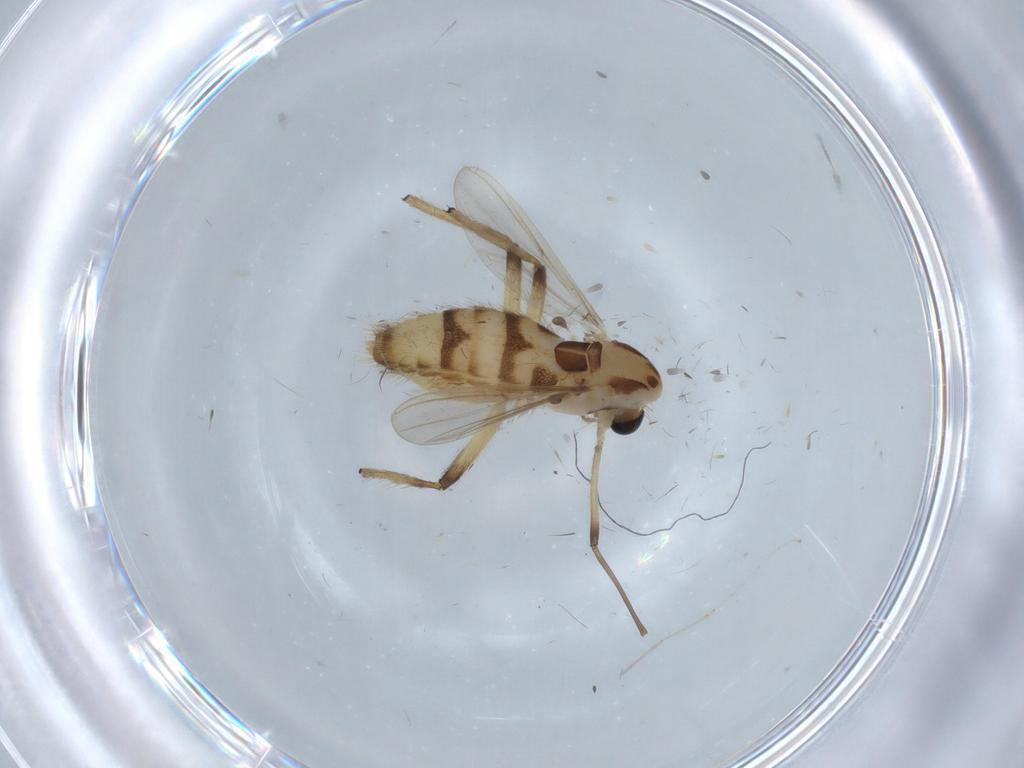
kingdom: Animalia
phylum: Arthropoda
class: Insecta
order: Diptera
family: Chironomidae
